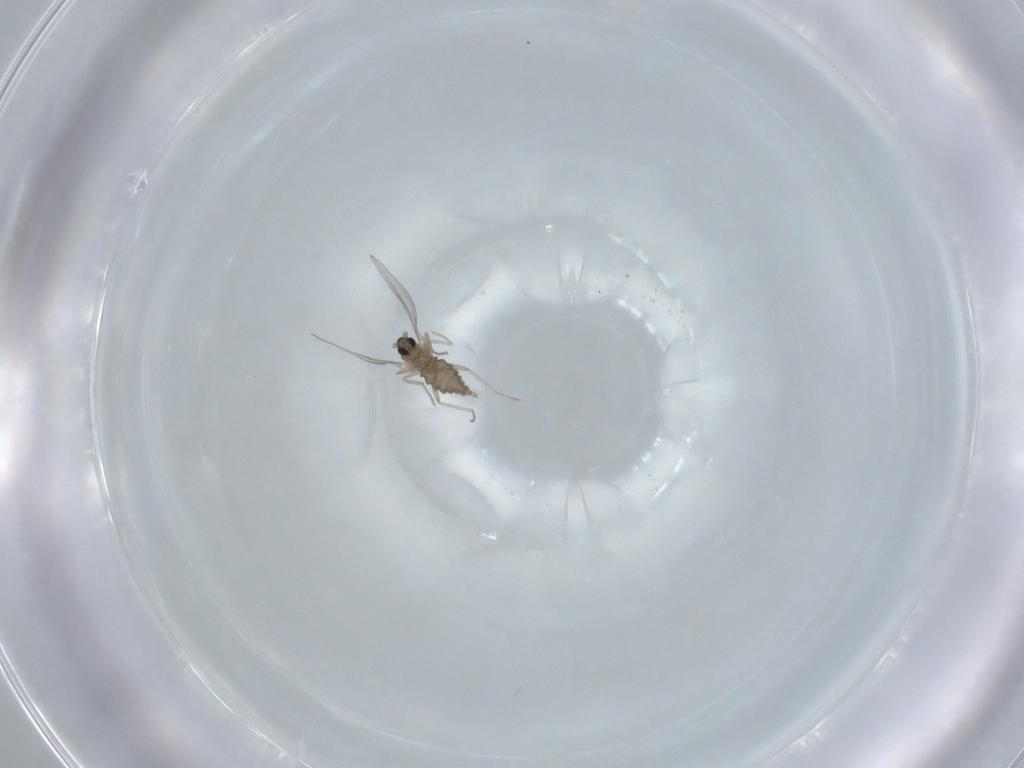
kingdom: Animalia
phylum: Arthropoda
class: Insecta
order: Diptera
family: Cecidomyiidae
